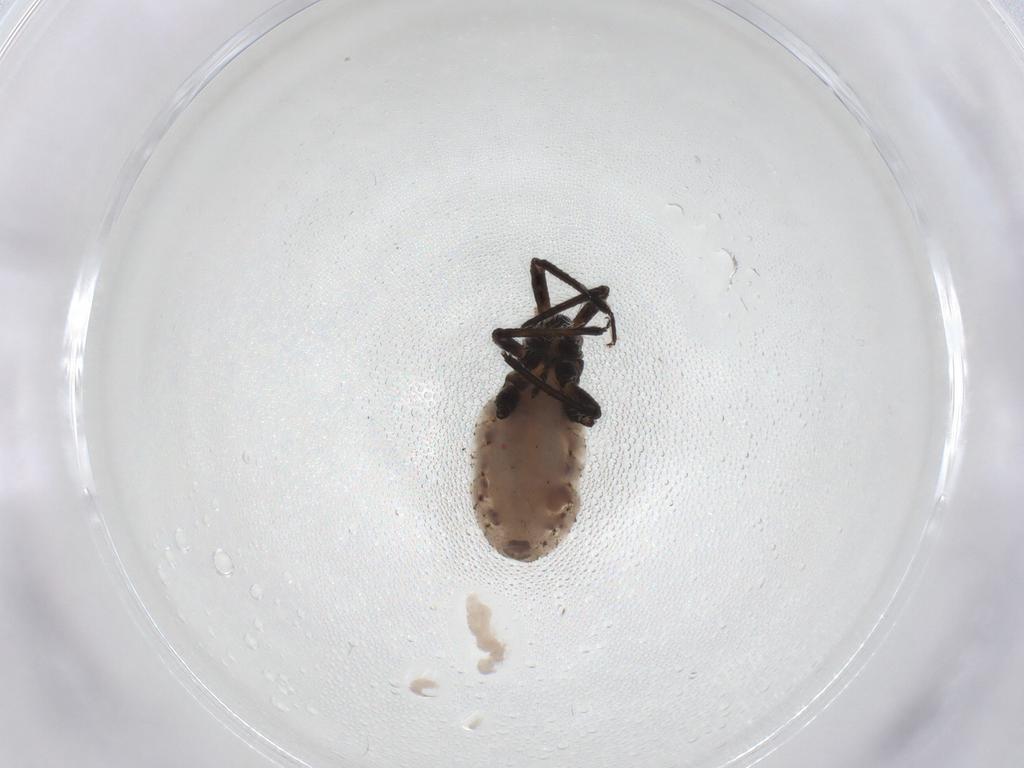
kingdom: Animalia
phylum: Arthropoda
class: Insecta
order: Hemiptera
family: Lachnidae
